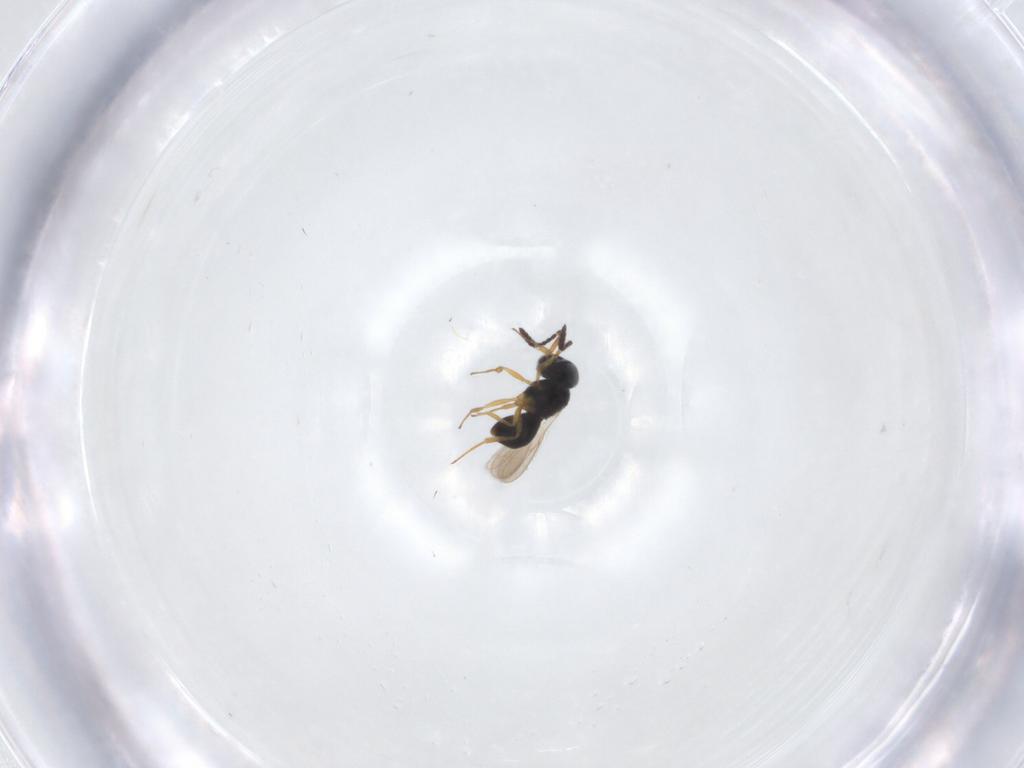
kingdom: Animalia
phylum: Arthropoda
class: Insecta
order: Hymenoptera
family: Scelionidae
